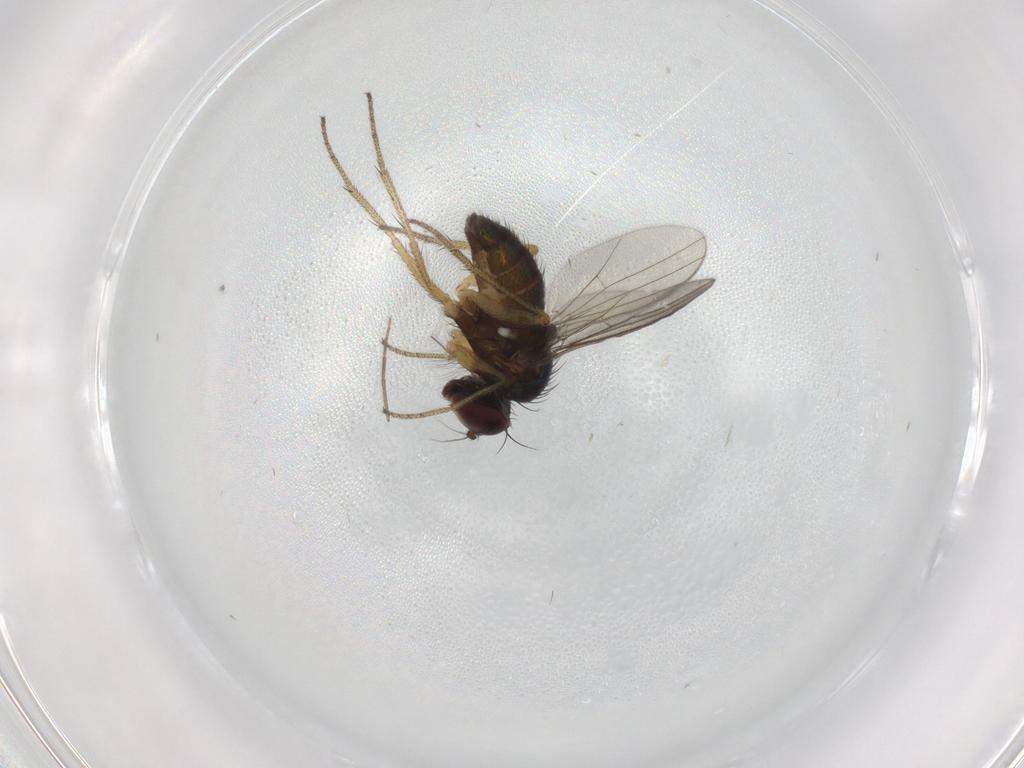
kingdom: Animalia
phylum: Arthropoda
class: Insecta
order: Diptera
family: Chironomidae
